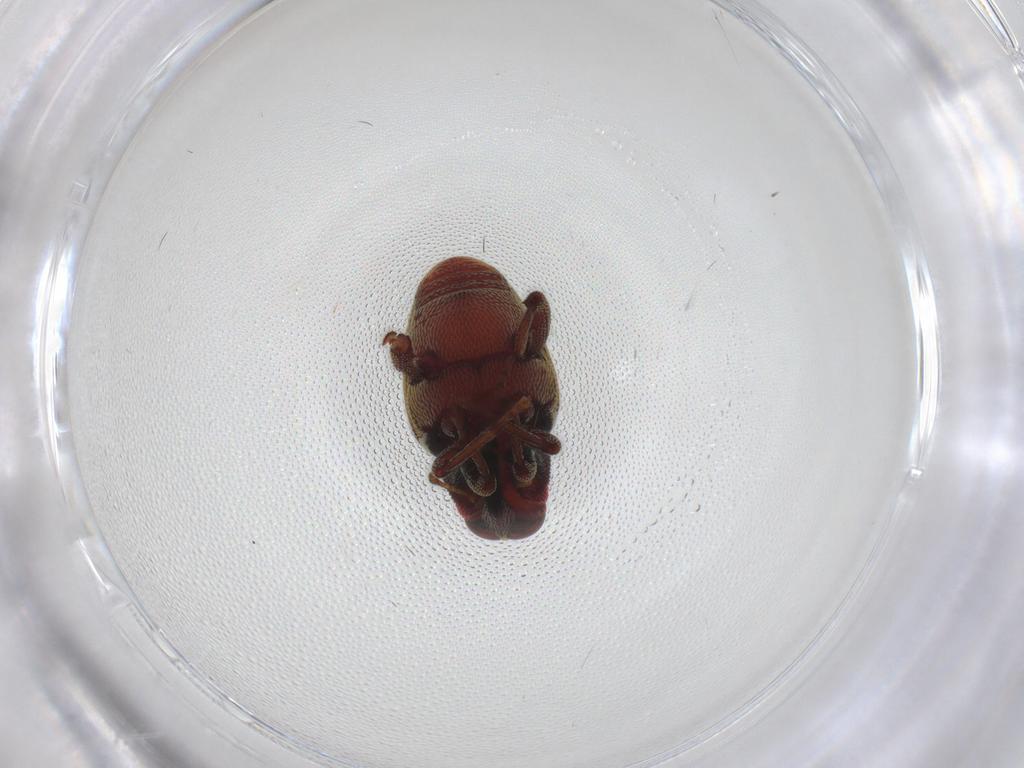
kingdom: Animalia
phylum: Arthropoda
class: Insecta
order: Coleoptera
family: Curculionidae
